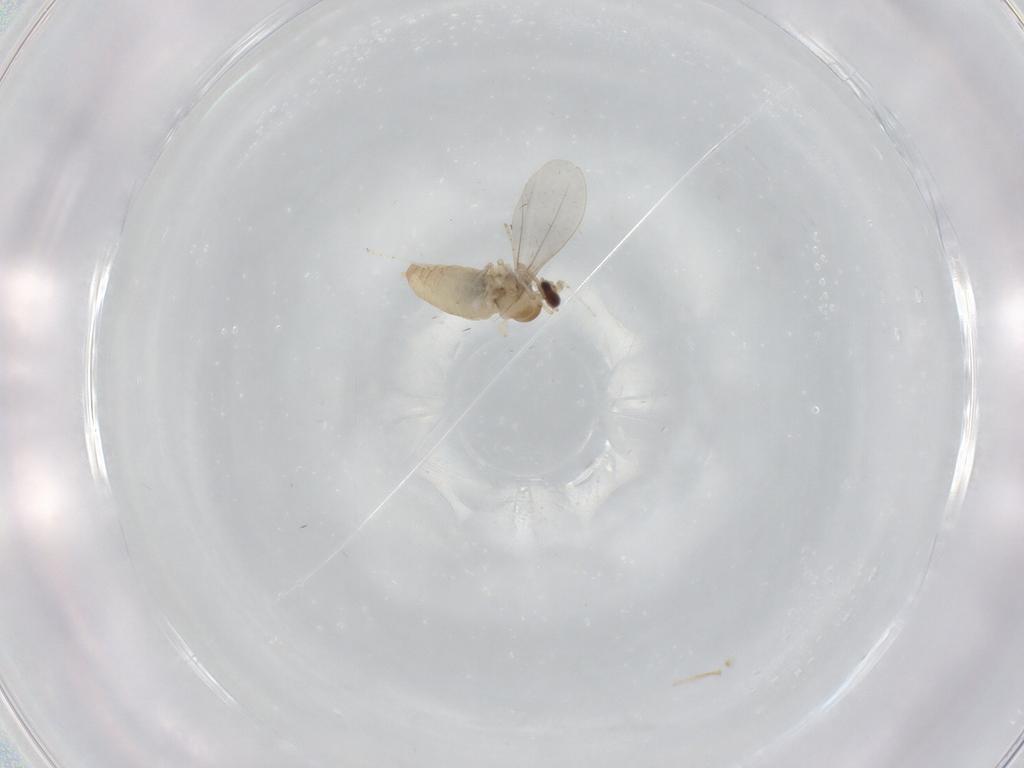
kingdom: Animalia
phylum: Arthropoda
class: Insecta
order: Diptera
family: Cecidomyiidae
